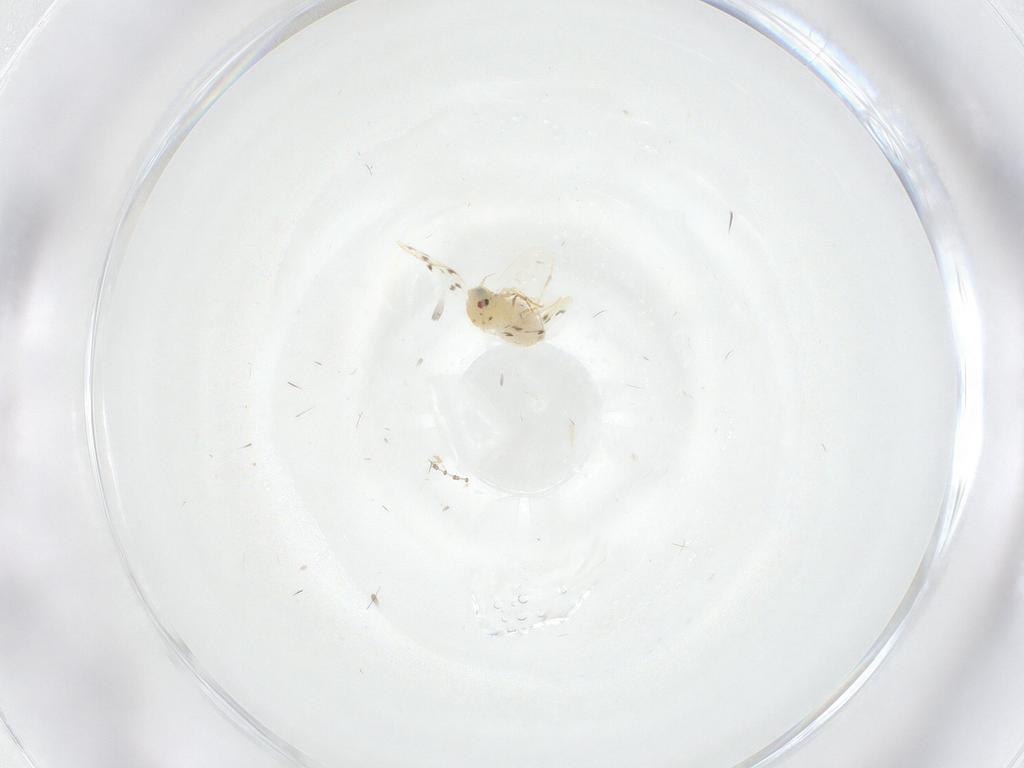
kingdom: Animalia
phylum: Arthropoda
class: Insecta
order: Hemiptera
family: Aleyrodidae
